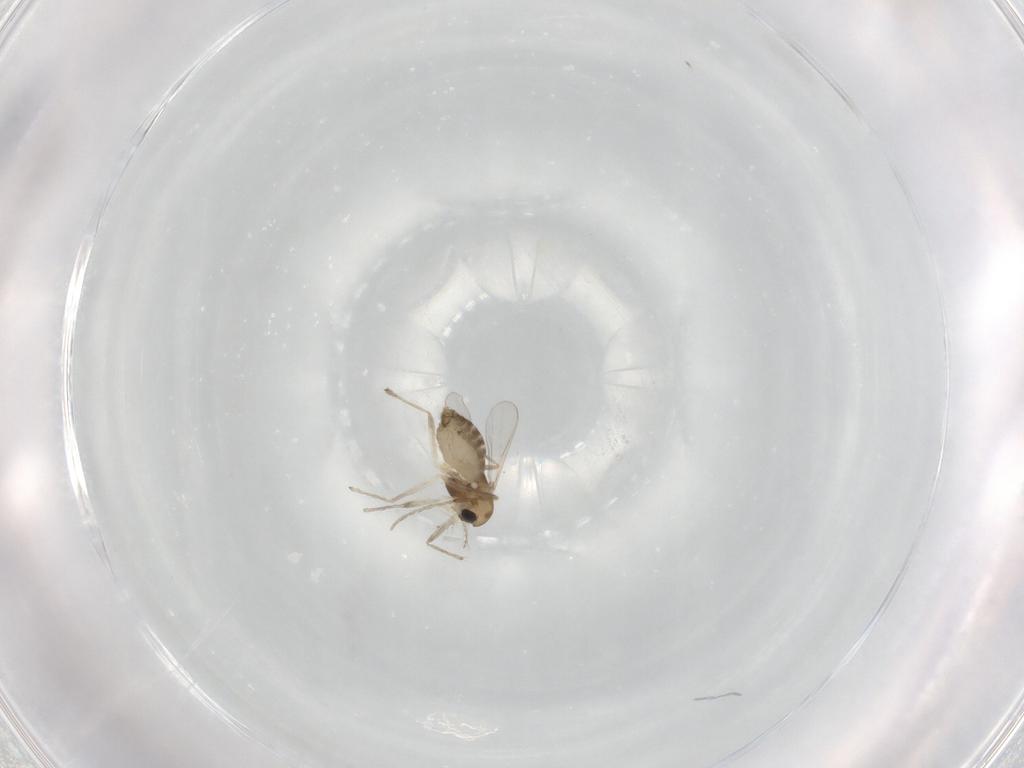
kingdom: Animalia
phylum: Arthropoda
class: Insecta
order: Diptera
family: Chironomidae
